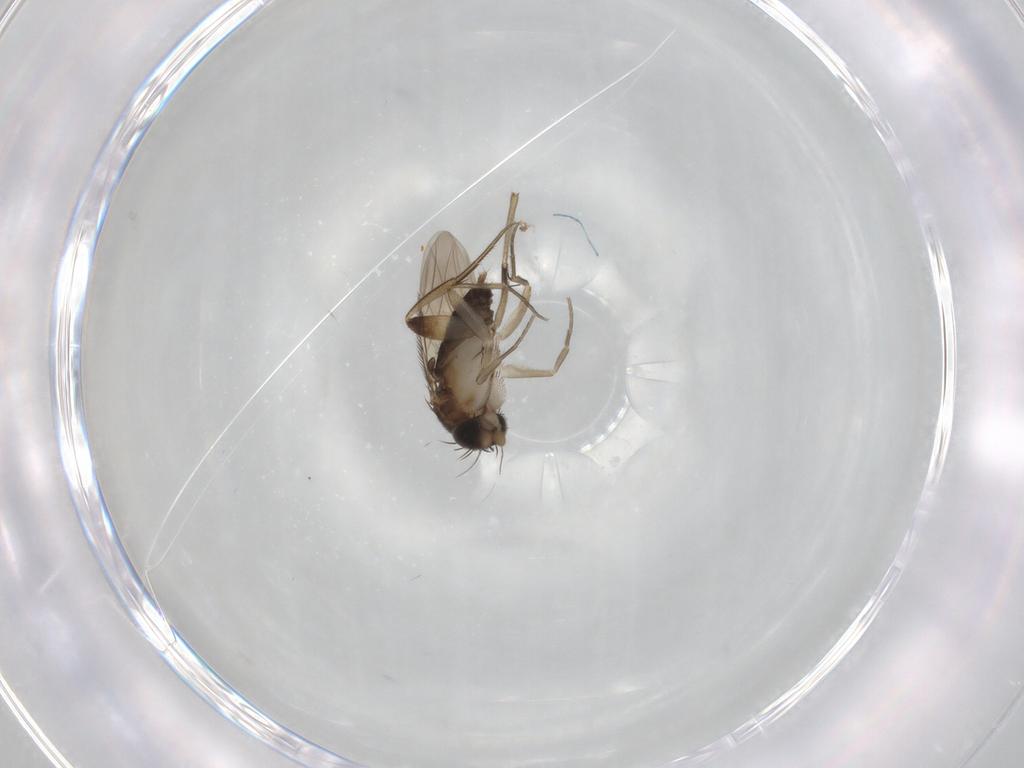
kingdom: Animalia
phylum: Arthropoda
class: Insecta
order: Diptera
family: Phoridae
